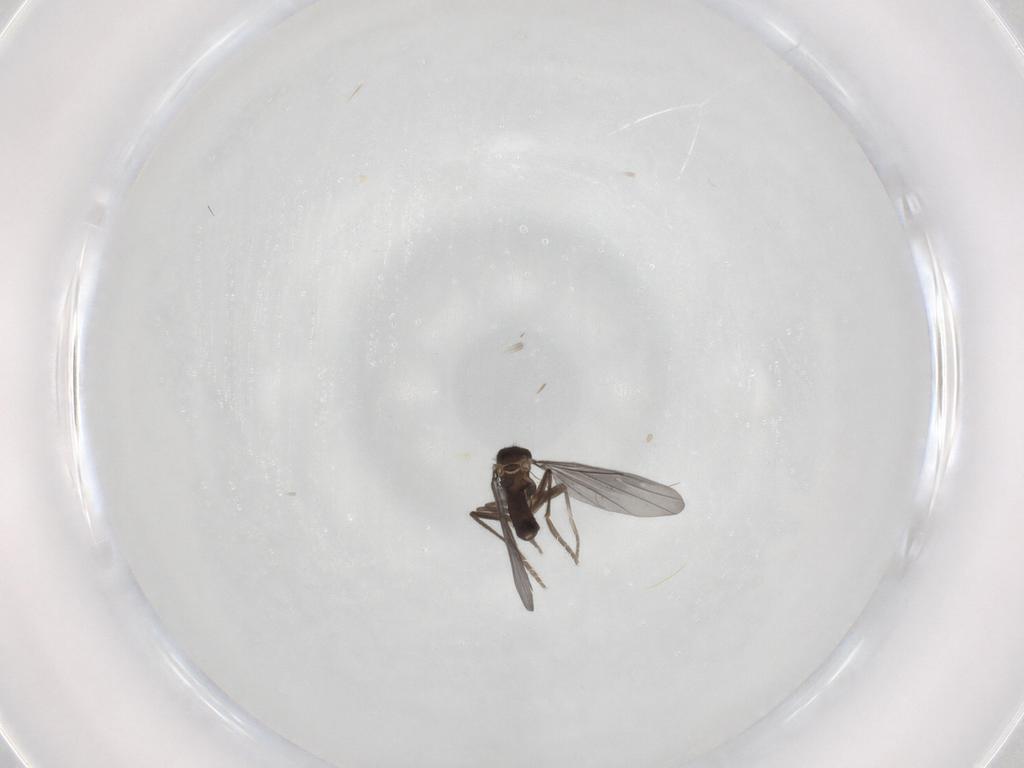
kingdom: Animalia
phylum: Arthropoda
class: Insecta
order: Diptera
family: Phoridae
